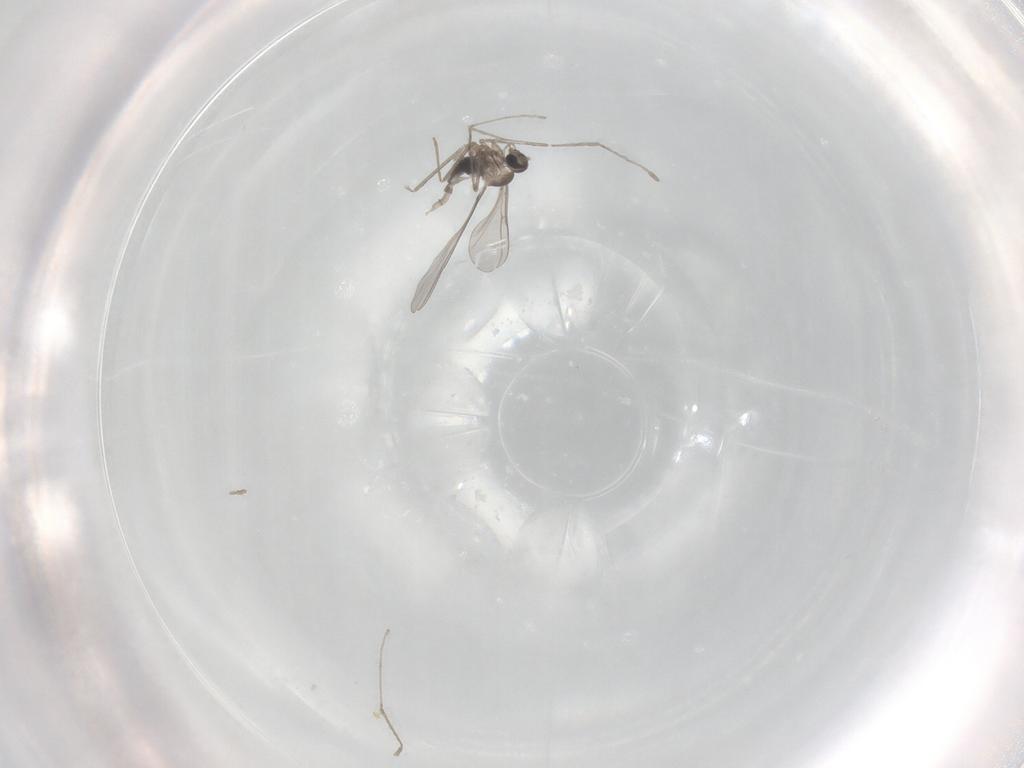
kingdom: Animalia
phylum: Arthropoda
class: Insecta
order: Diptera
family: Cecidomyiidae
